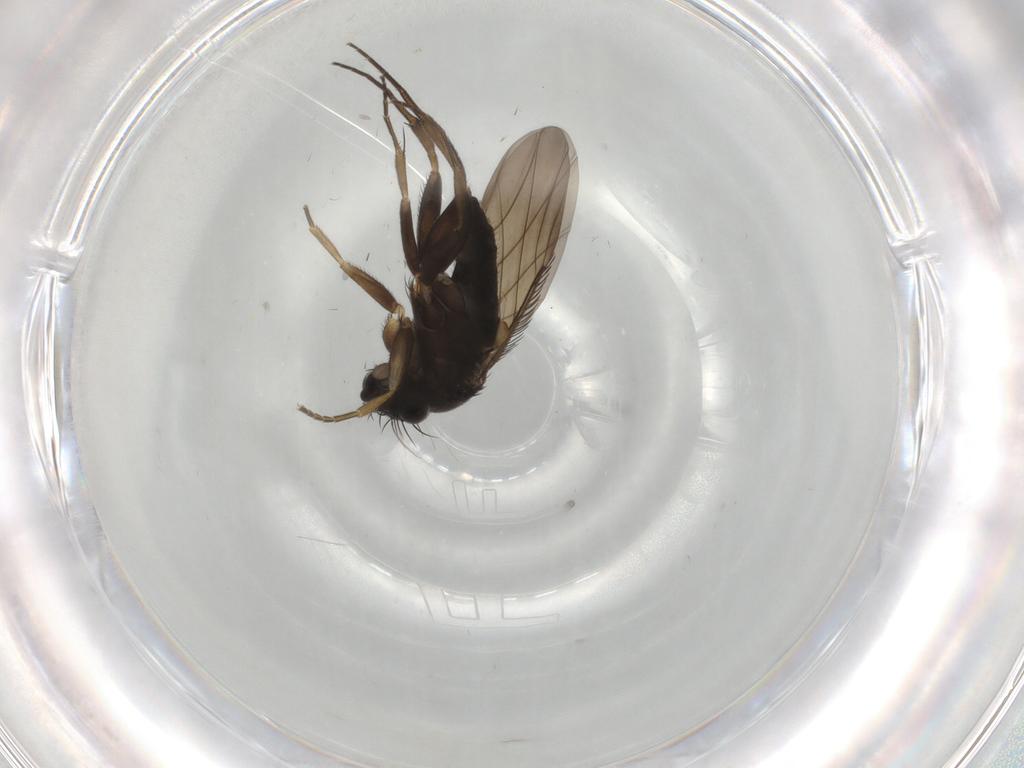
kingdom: Animalia
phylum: Arthropoda
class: Insecta
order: Diptera
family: Phoridae
